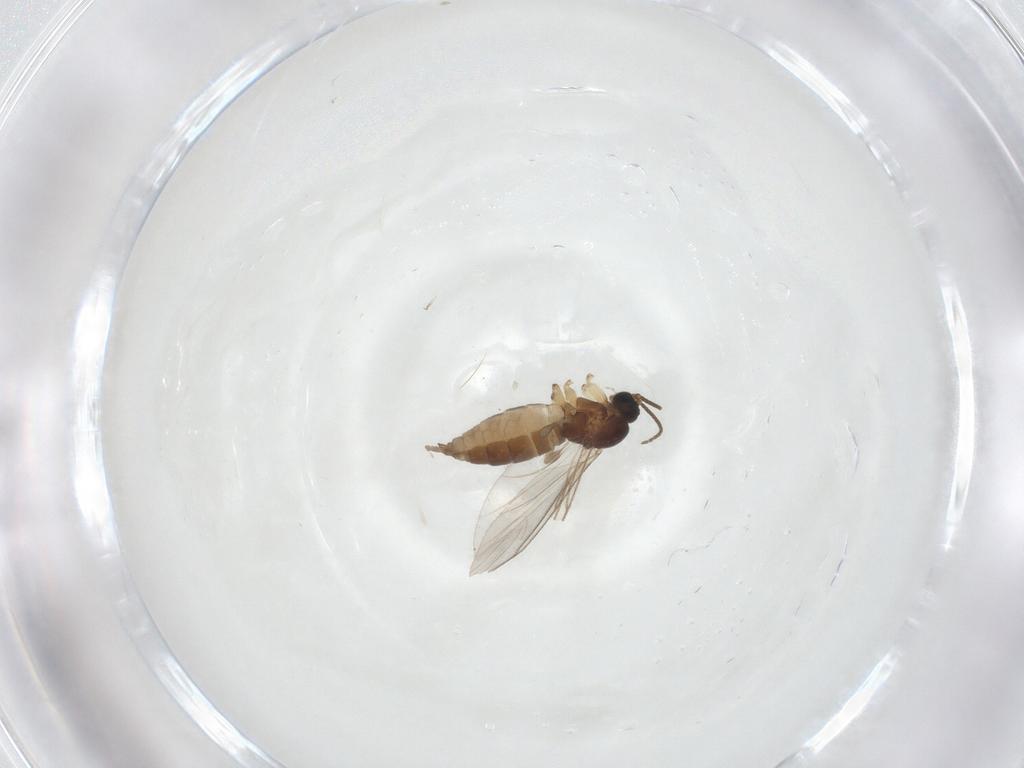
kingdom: Animalia
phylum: Arthropoda
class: Insecta
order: Diptera
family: Sciaridae
